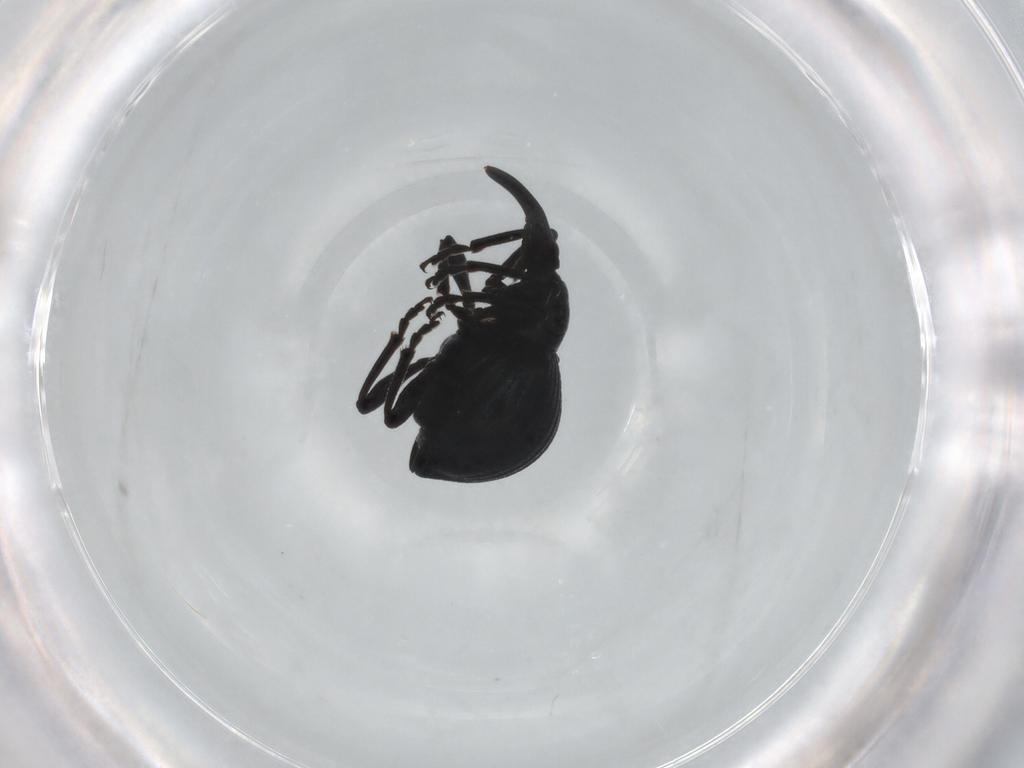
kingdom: Animalia
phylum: Arthropoda
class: Insecta
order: Coleoptera
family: Apionidae
